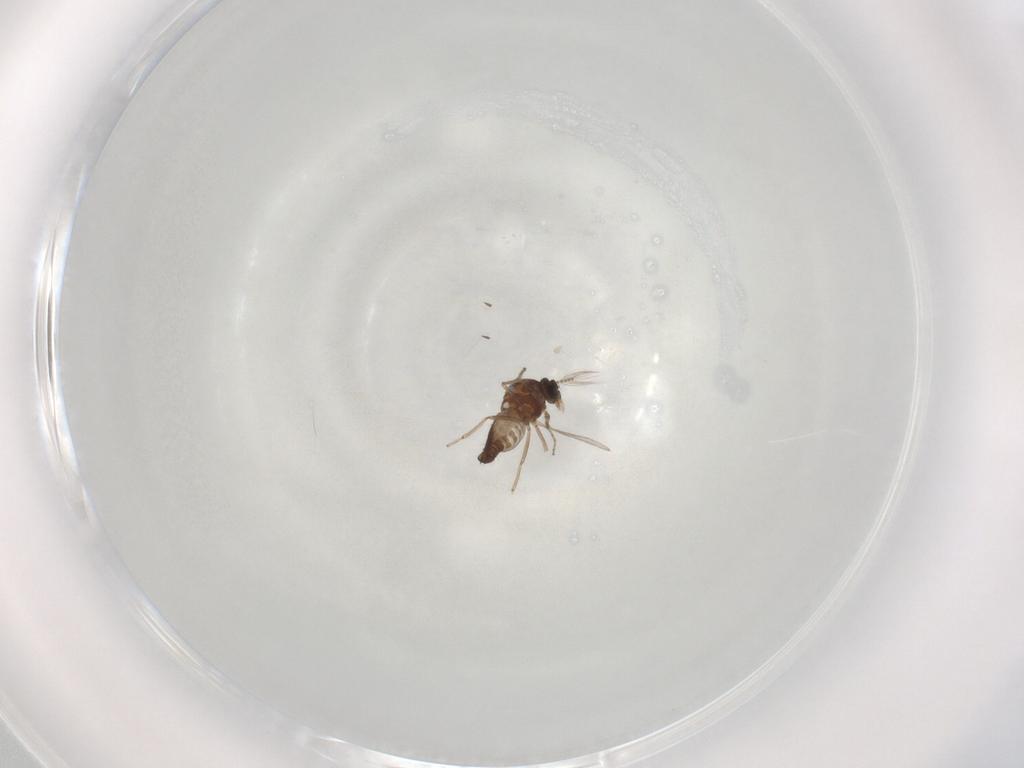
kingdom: Animalia
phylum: Arthropoda
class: Insecta
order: Diptera
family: Ceratopogonidae
